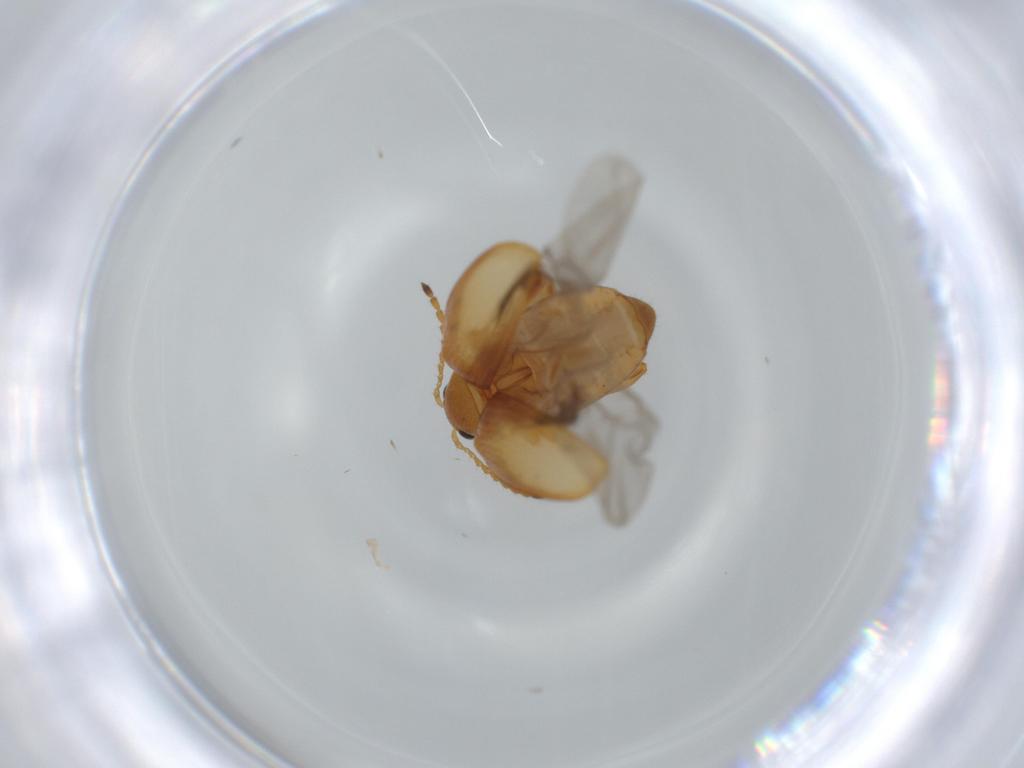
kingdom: Animalia
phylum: Arthropoda
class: Insecta
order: Coleoptera
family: Chrysomelidae
